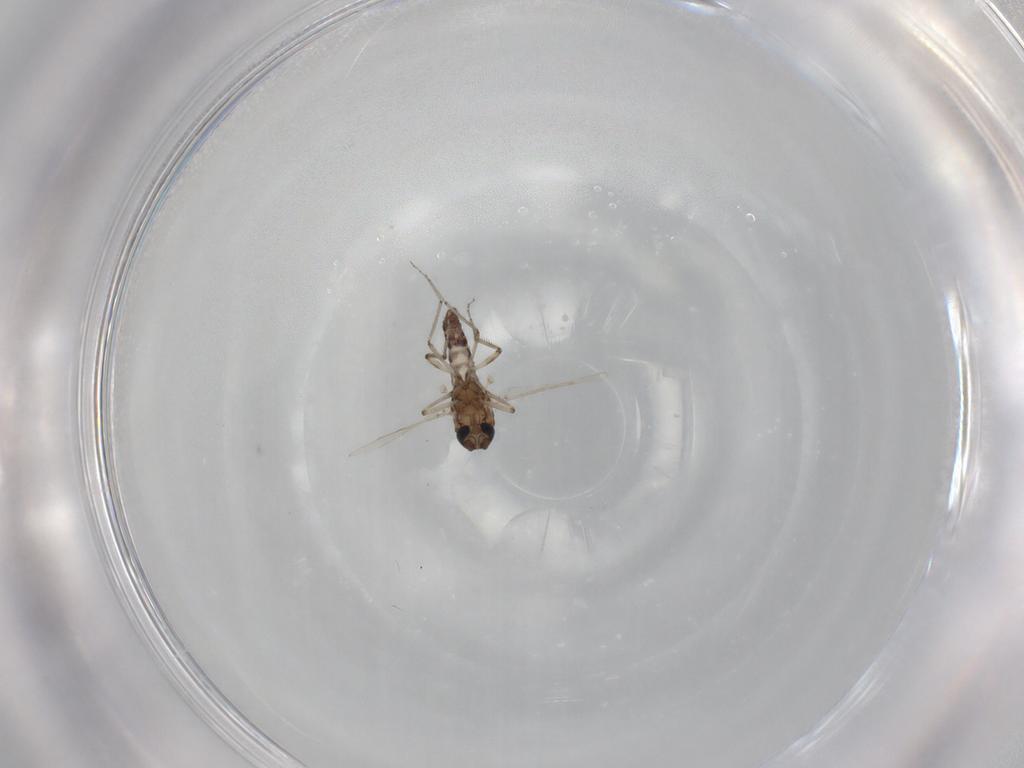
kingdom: Animalia
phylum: Arthropoda
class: Insecta
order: Diptera
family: Ceratopogonidae
